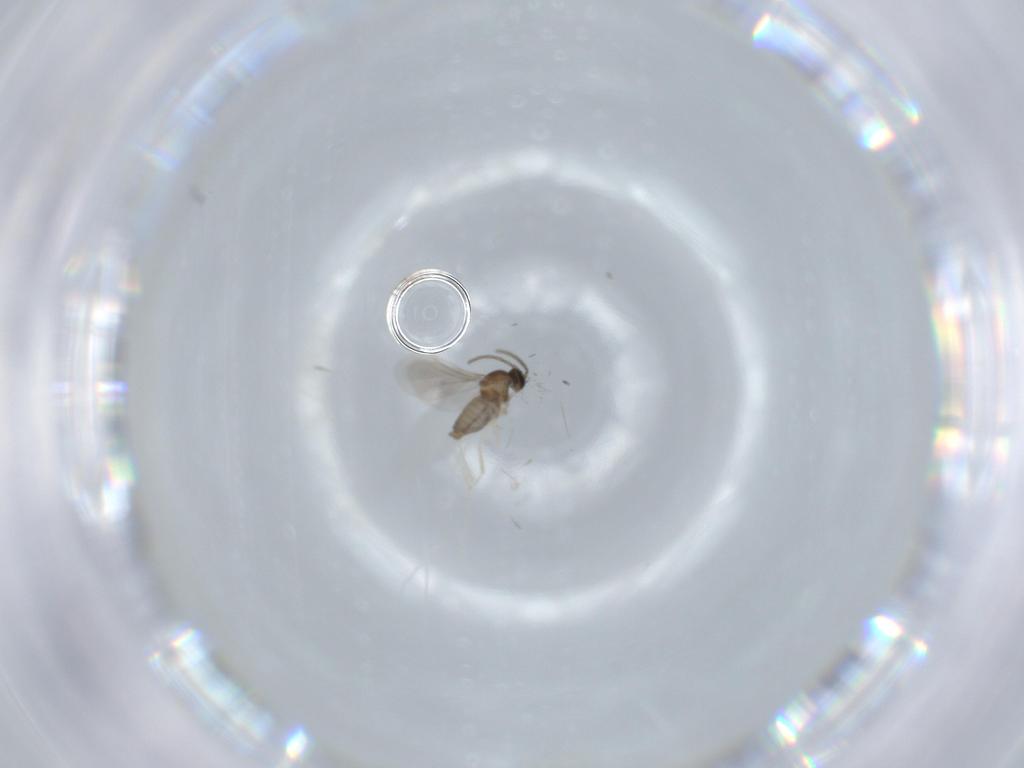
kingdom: Animalia
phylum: Arthropoda
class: Insecta
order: Diptera
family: Cecidomyiidae
